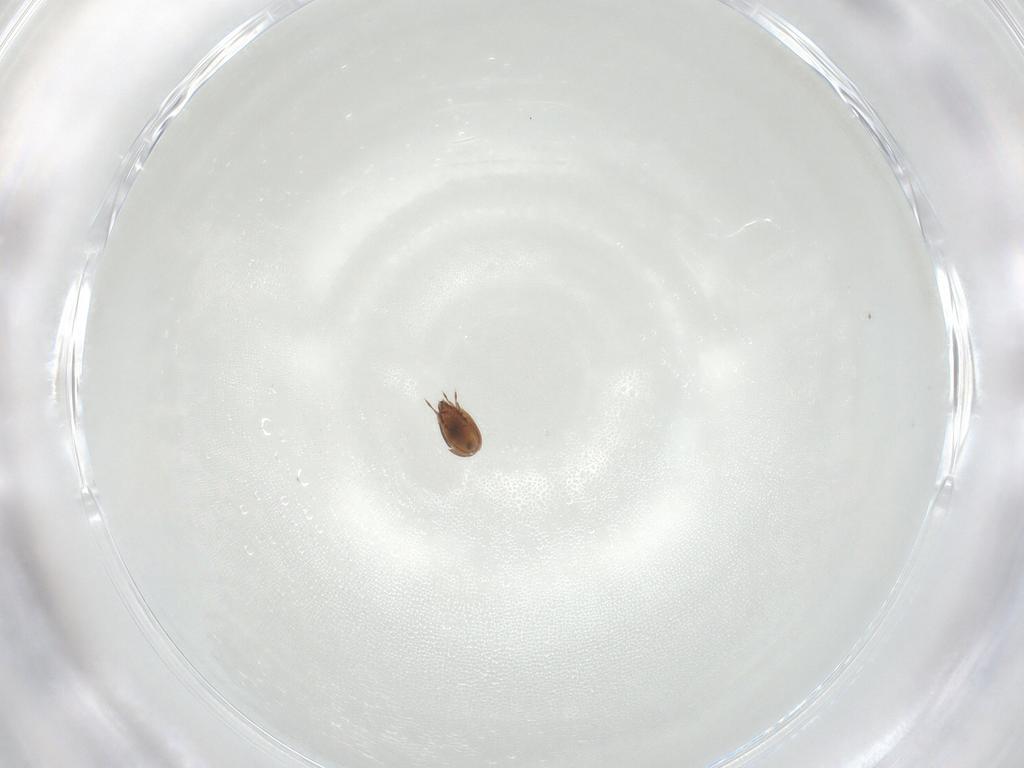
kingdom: Animalia
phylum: Arthropoda
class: Arachnida
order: Sarcoptiformes
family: Oripodidae
